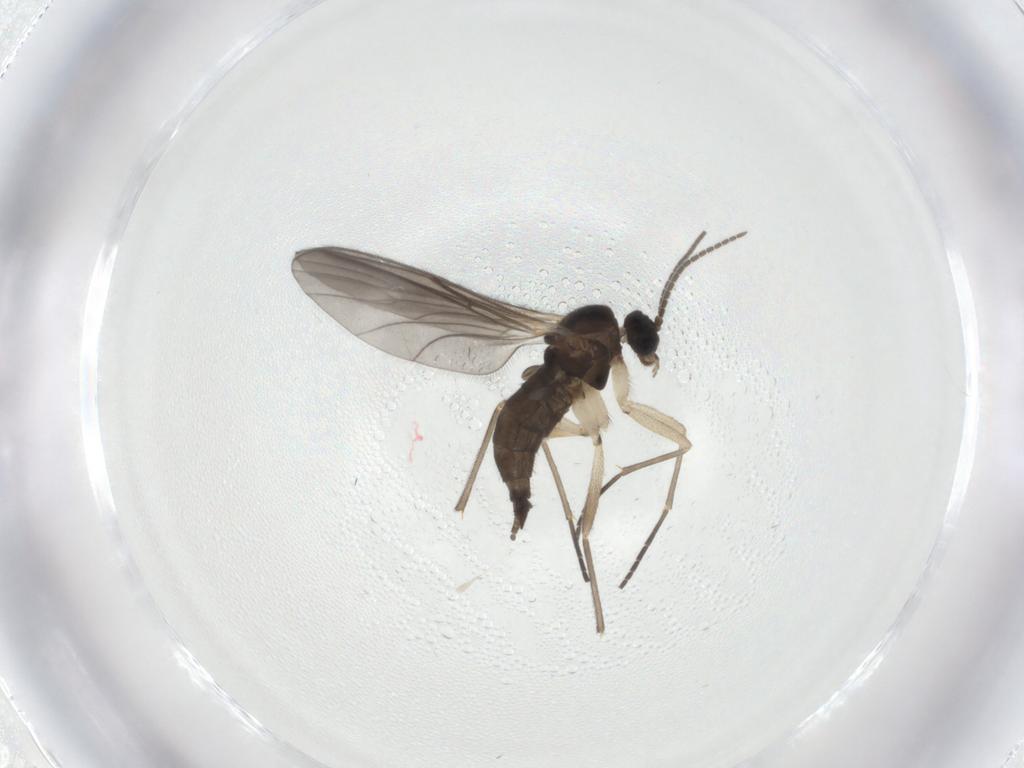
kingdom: Animalia
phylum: Arthropoda
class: Insecta
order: Diptera
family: Sciaridae
